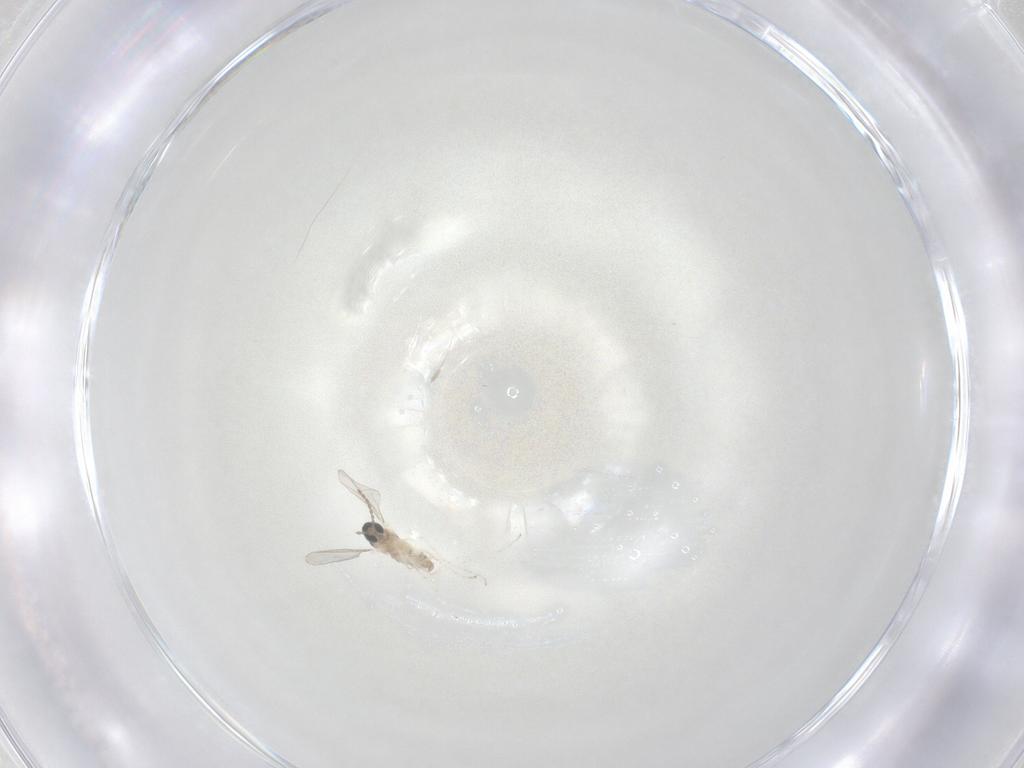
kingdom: Animalia
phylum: Arthropoda
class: Insecta
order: Diptera
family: Cecidomyiidae
